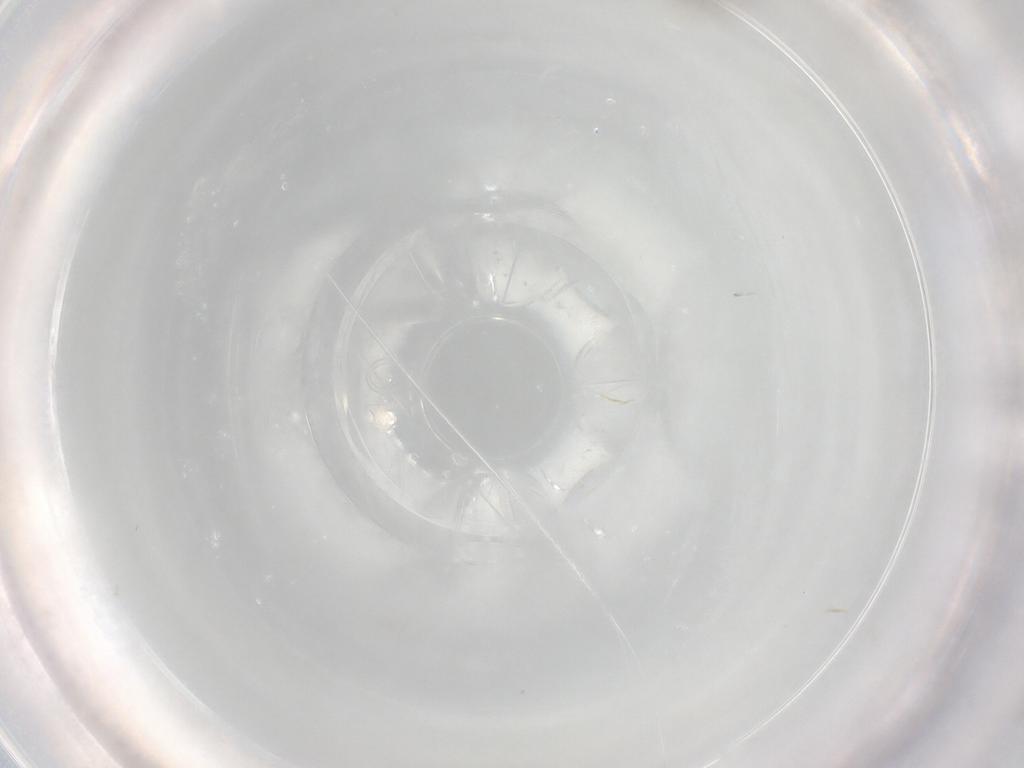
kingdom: Animalia
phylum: Arthropoda
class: Insecta
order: Diptera
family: Cecidomyiidae
